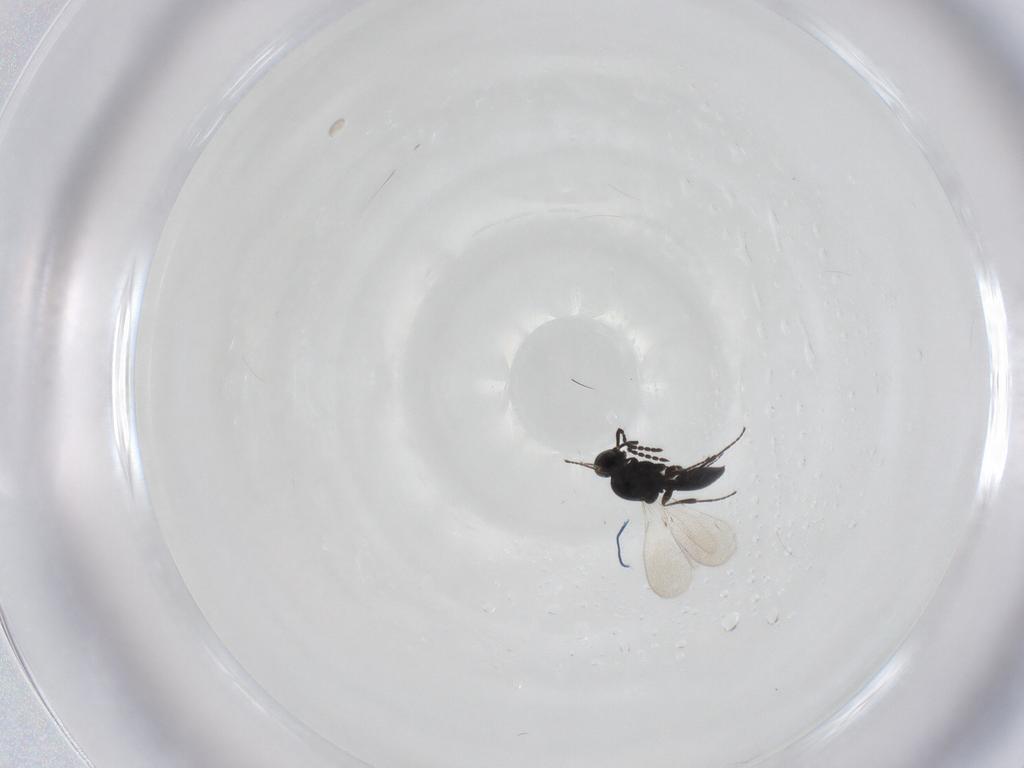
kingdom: Animalia
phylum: Arthropoda
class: Insecta
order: Hymenoptera
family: Platygastridae
